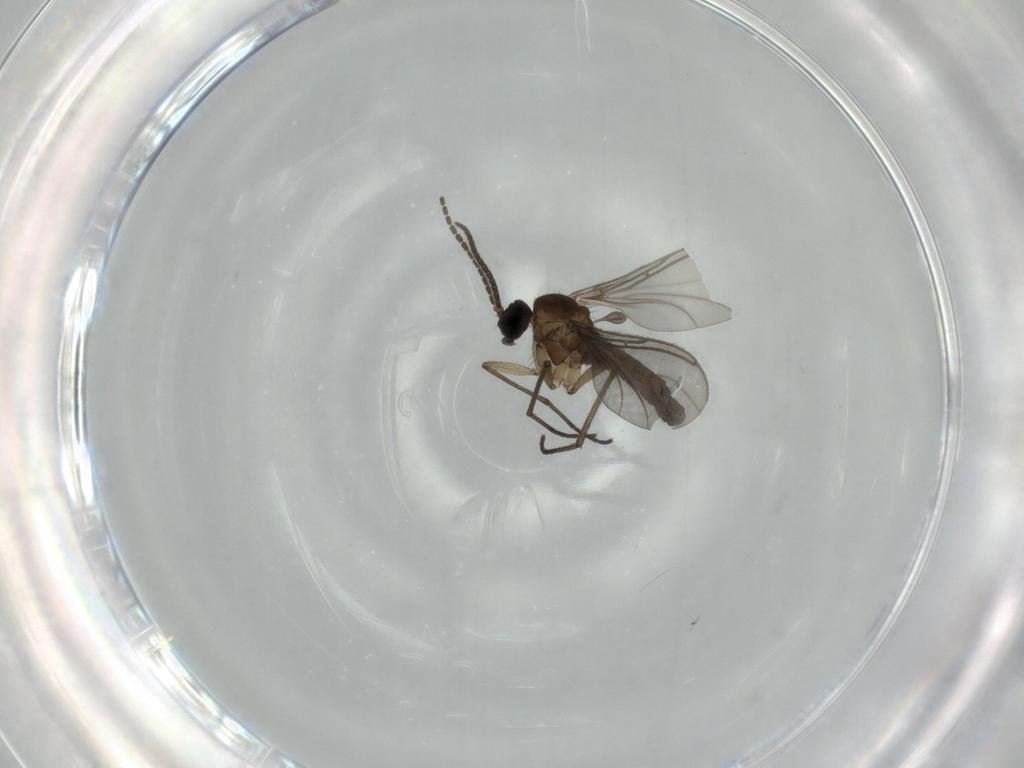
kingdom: Animalia
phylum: Arthropoda
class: Insecta
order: Diptera
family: Sciaridae
